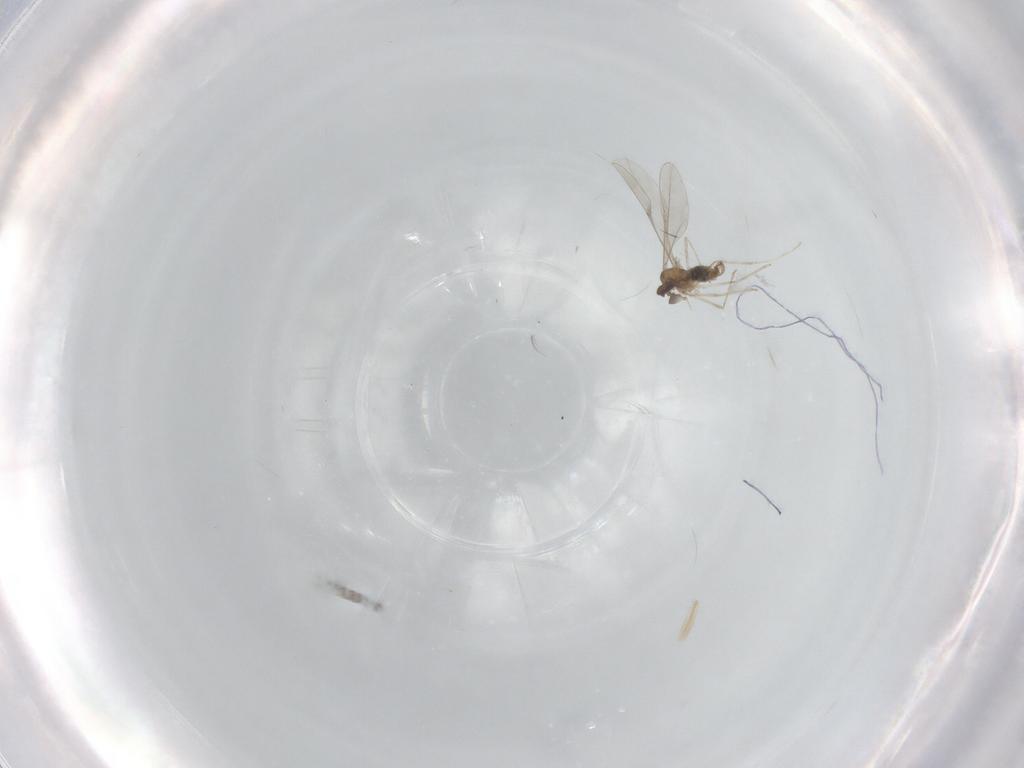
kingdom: Animalia
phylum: Arthropoda
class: Insecta
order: Diptera
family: Cecidomyiidae
